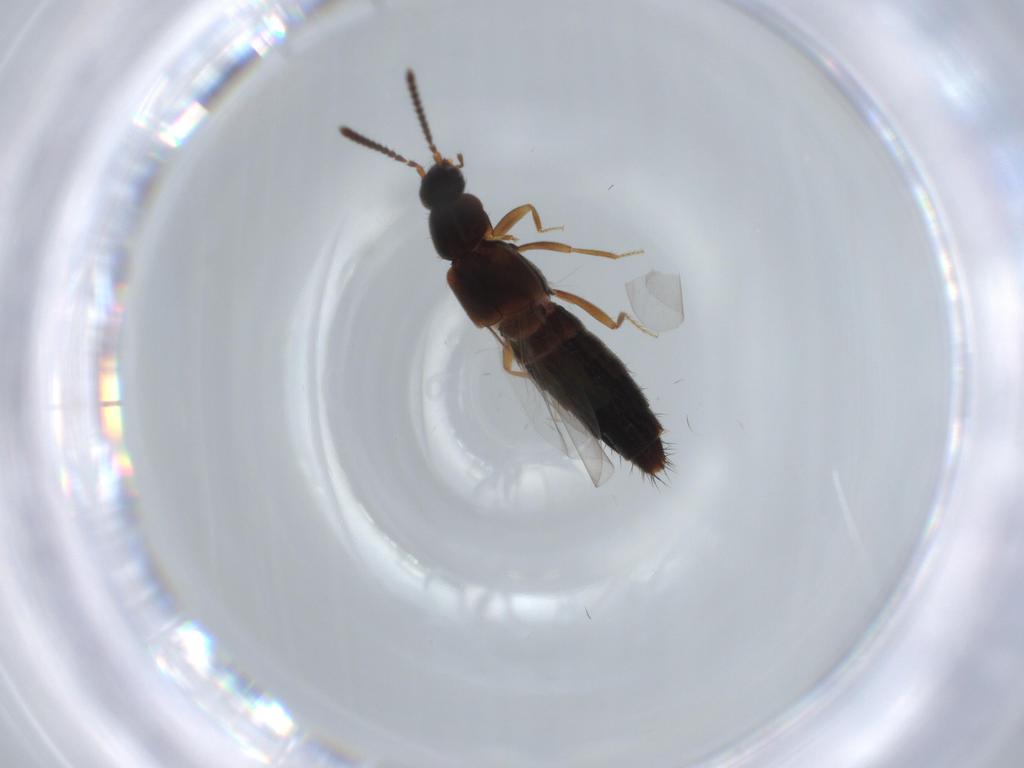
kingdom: Animalia
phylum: Arthropoda
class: Insecta
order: Coleoptera
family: Staphylinidae
